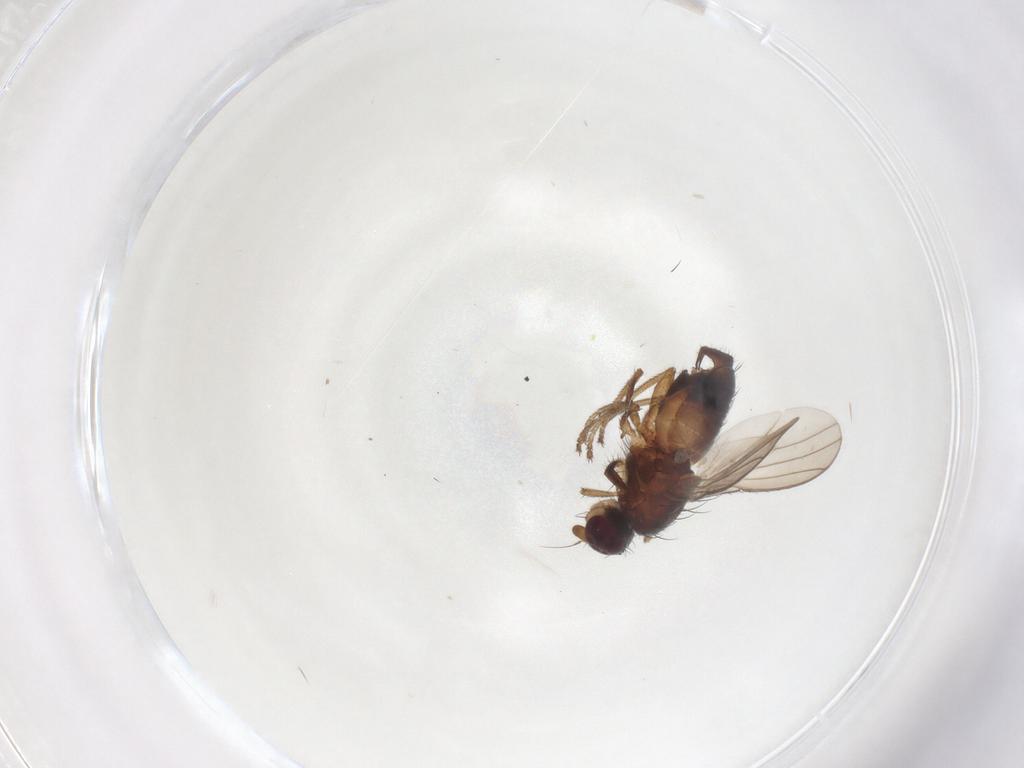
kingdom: Animalia
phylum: Arthropoda
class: Insecta
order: Diptera
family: Heleomyzidae
